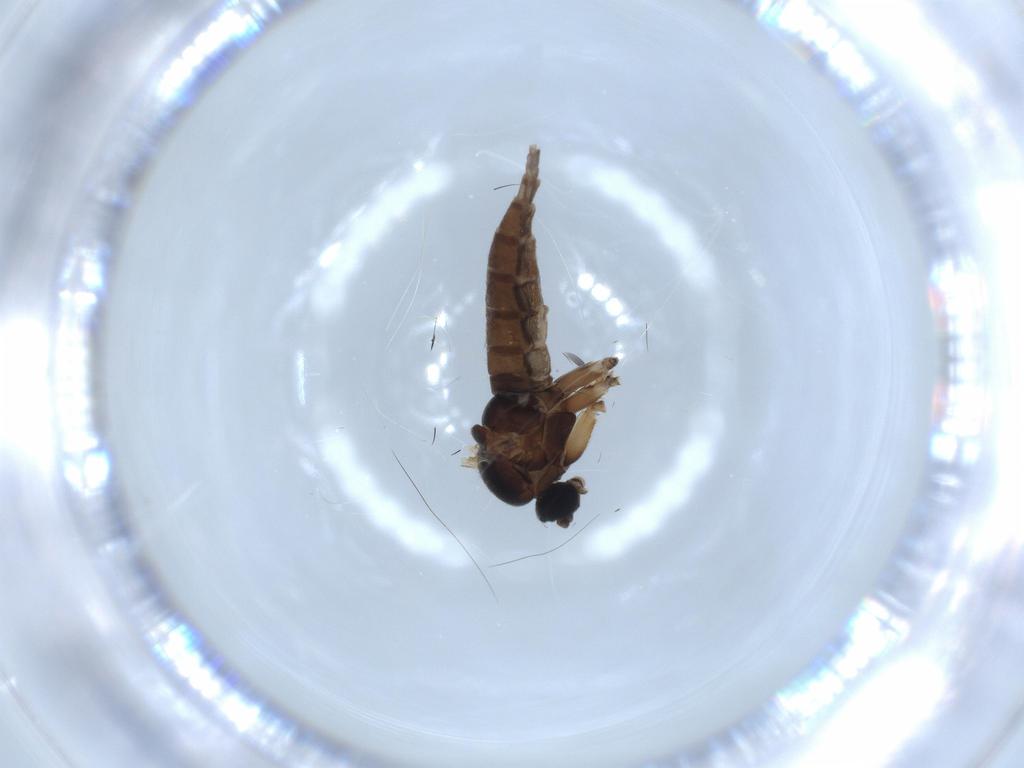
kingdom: Animalia
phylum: Arthropoda
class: Insecta
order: Diptera
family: Sciaridae
